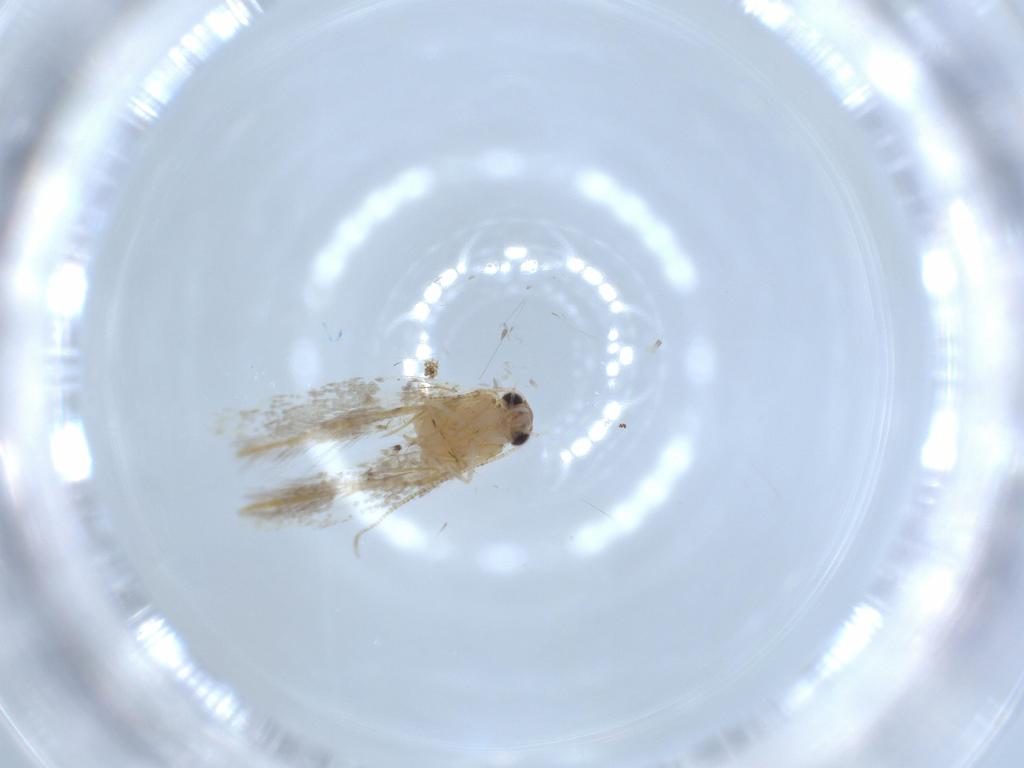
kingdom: Animalia
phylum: Arthropoda
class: Insecta
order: Lepidoptera
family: Tineidae
